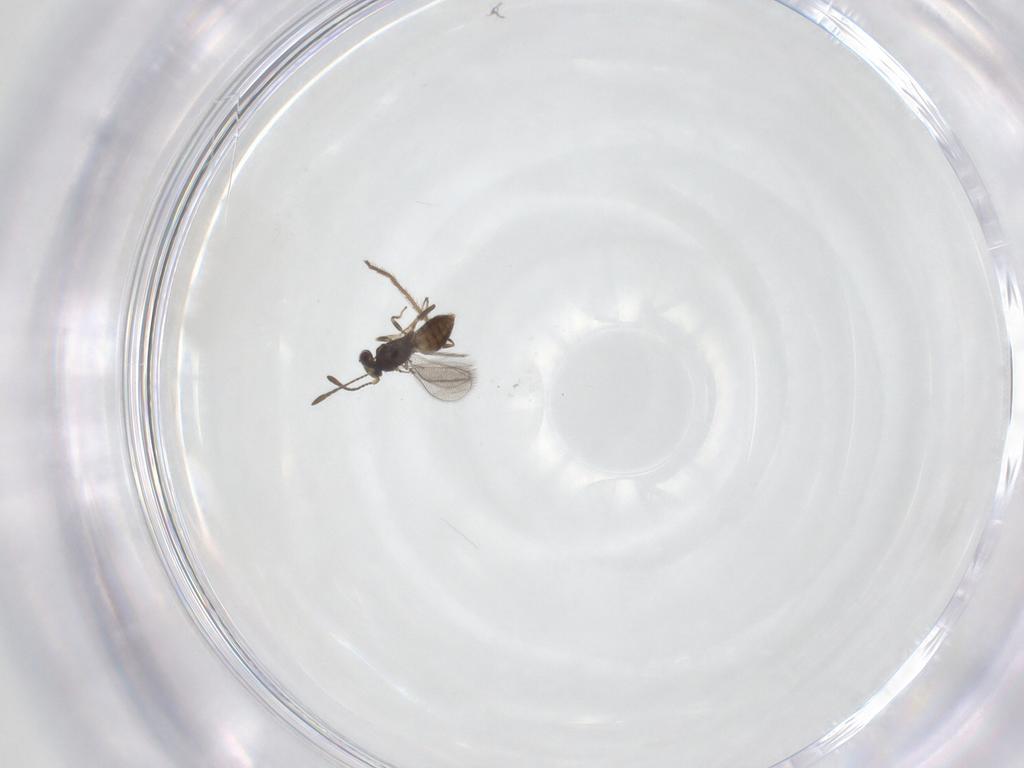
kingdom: Animalia
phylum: Arthropoda
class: Insecta
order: Hymenoptera
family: Mymaridae
